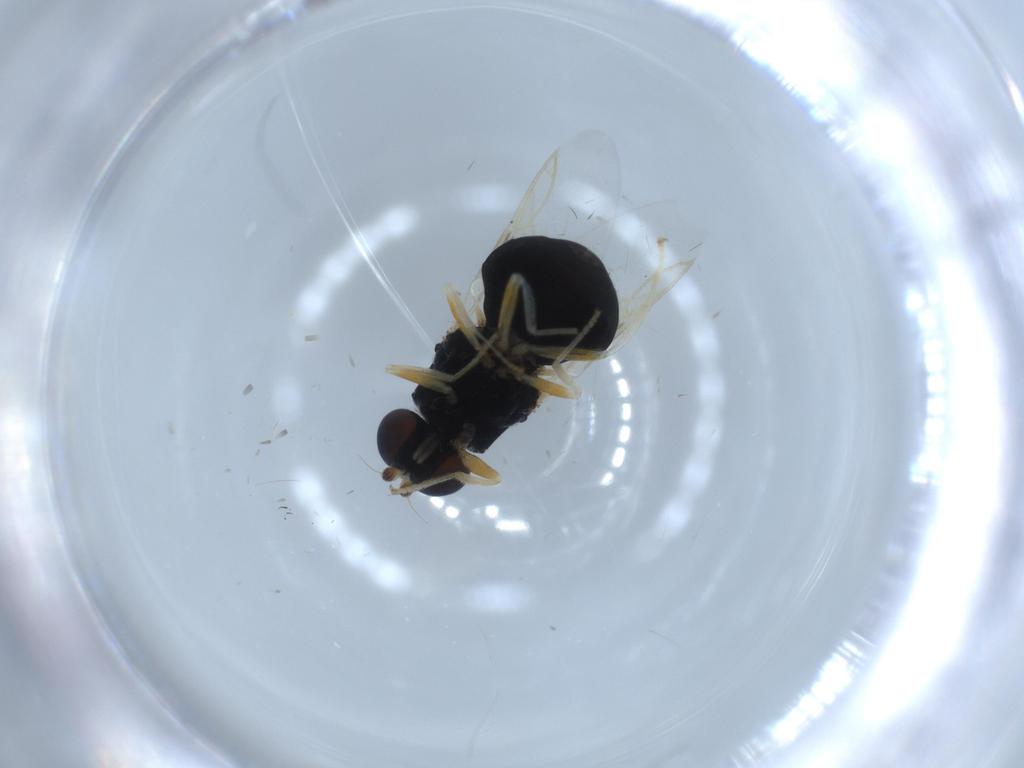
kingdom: Animalia
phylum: Arthropoda
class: Insecta
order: Diptera
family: Stratiomyidae
